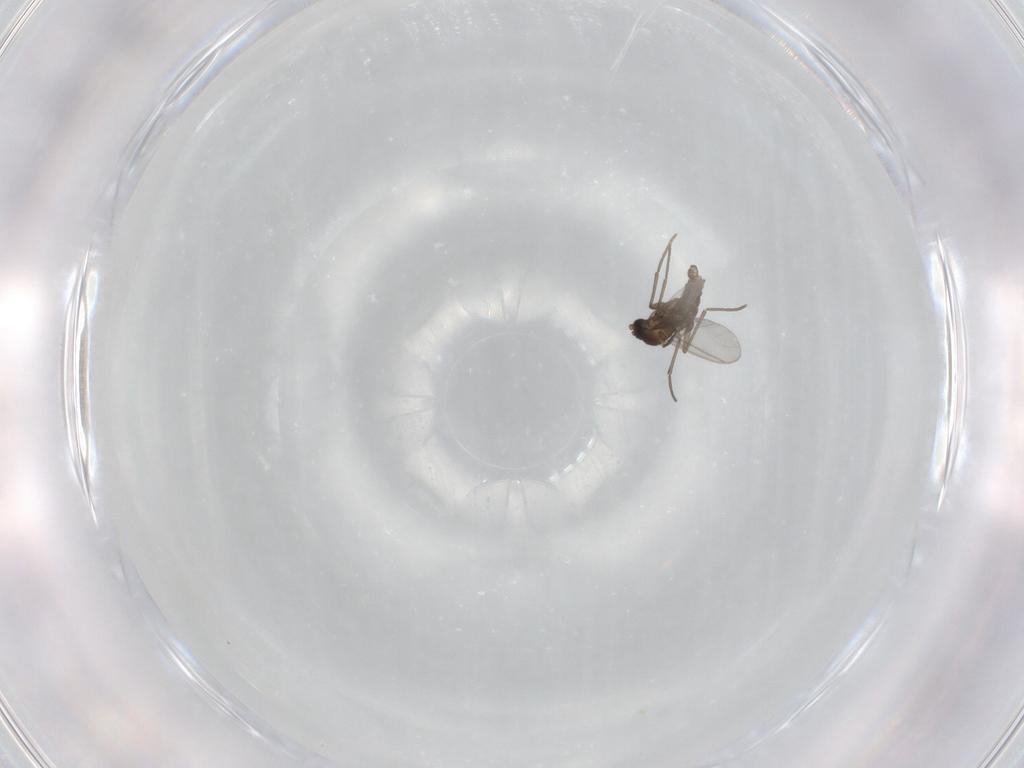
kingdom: Animalia
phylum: Arthropoda
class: Insecta
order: Diptera
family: Sciaridae
